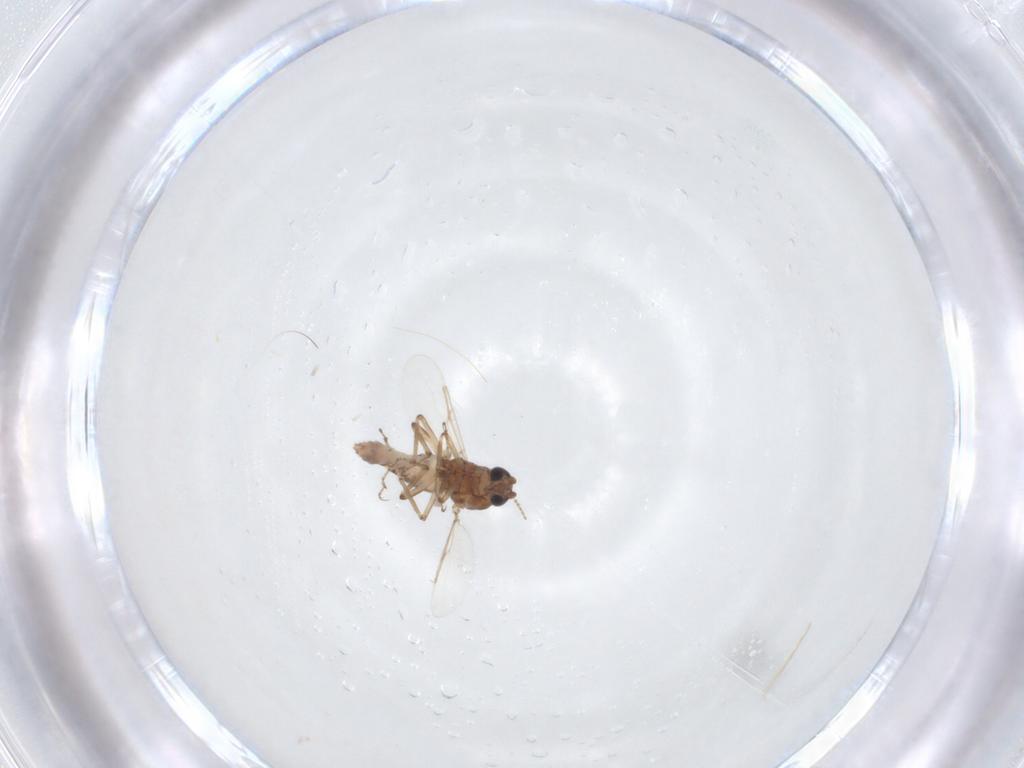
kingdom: Animalia
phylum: Arthropoda
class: Insecta
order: Diptera
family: Ceratopogonidae
